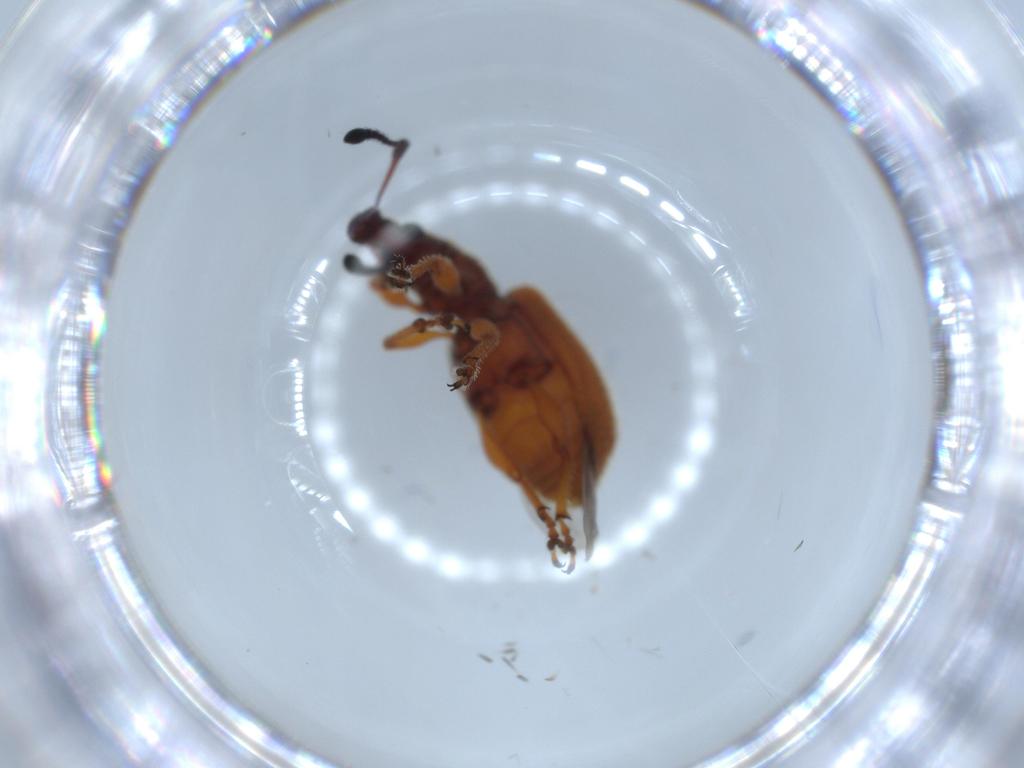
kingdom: Animalia
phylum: Arthropoda
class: Insecta
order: Coleoptera
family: Curculionidae
